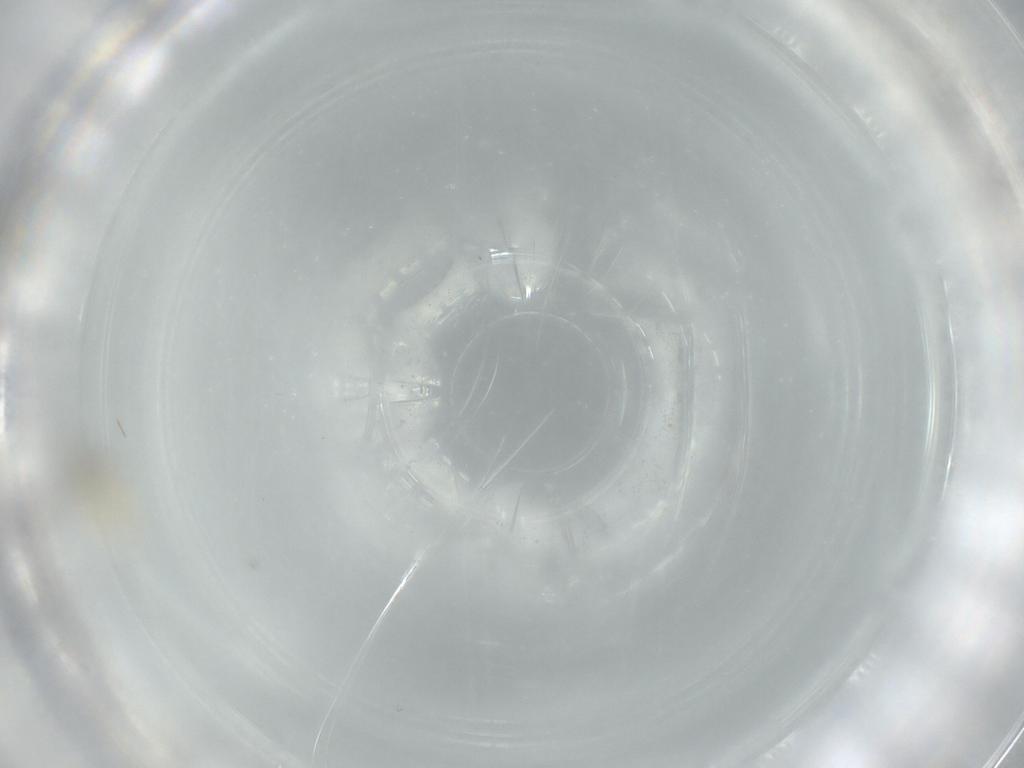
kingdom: Animalia
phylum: Arthropoda
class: Insecta
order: Diptera
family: Cecidomyiidae
